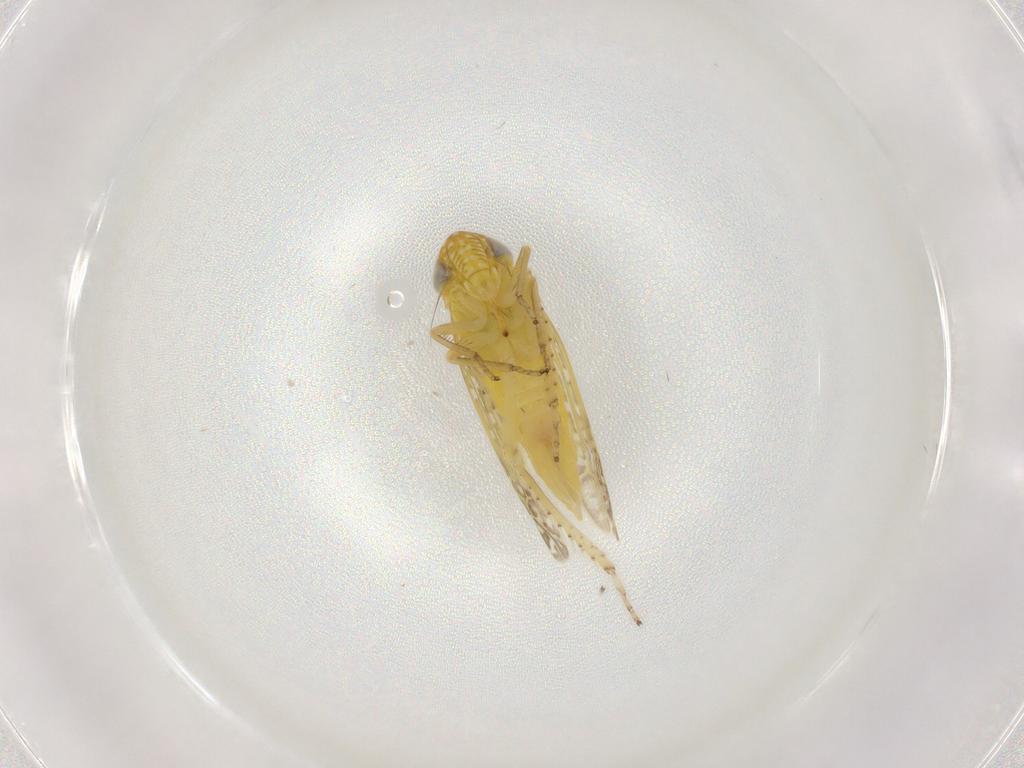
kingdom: Animalia
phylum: Arthropoda
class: Insecta
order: Hemiptera
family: Cicadellidae
